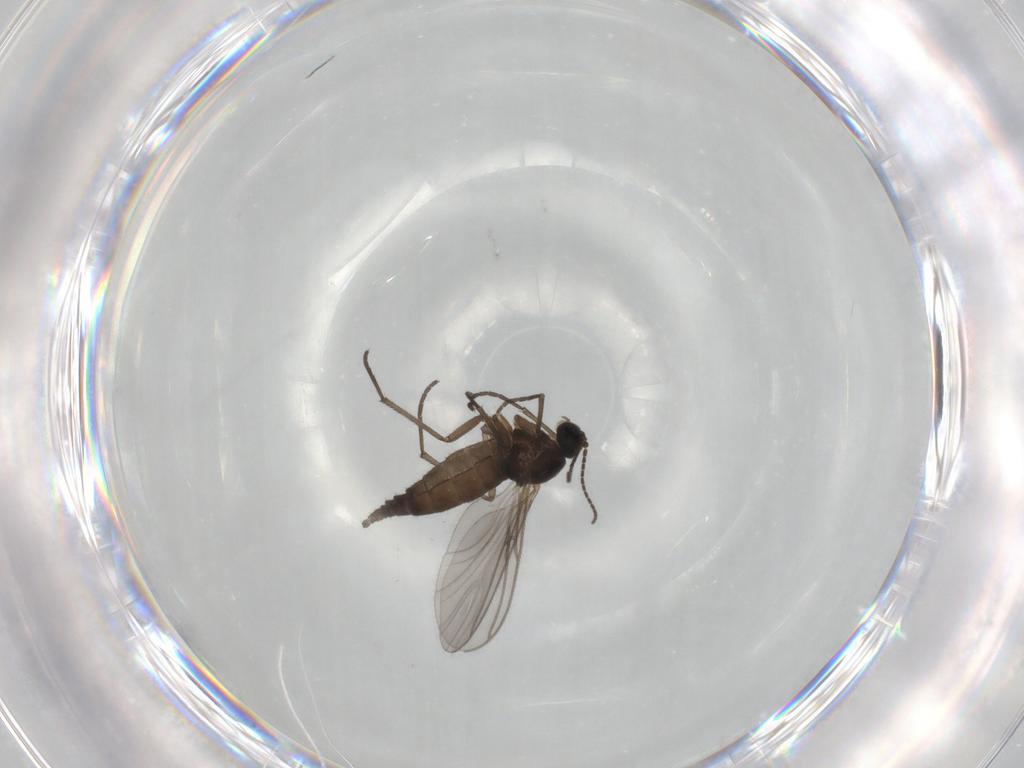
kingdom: Animalia
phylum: Arthropoda
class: Insecta
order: Diptera
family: Sciaridae
